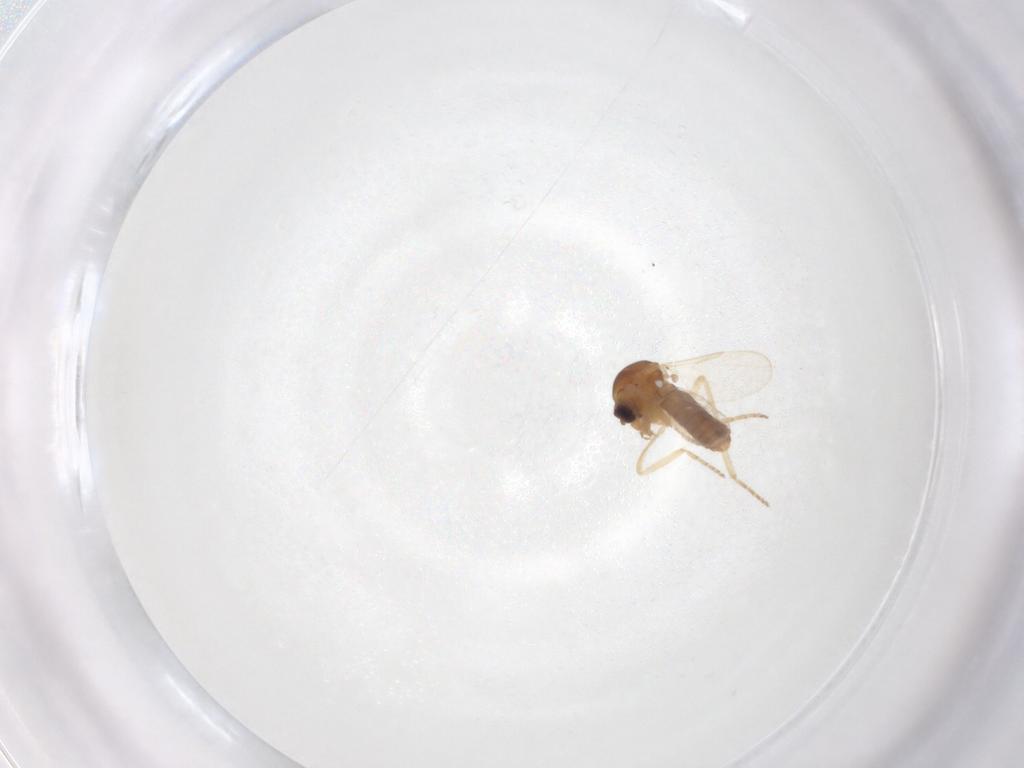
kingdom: Animalia
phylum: Arthropoda
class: Insecta
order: Diptera
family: Ceratopogonidae
